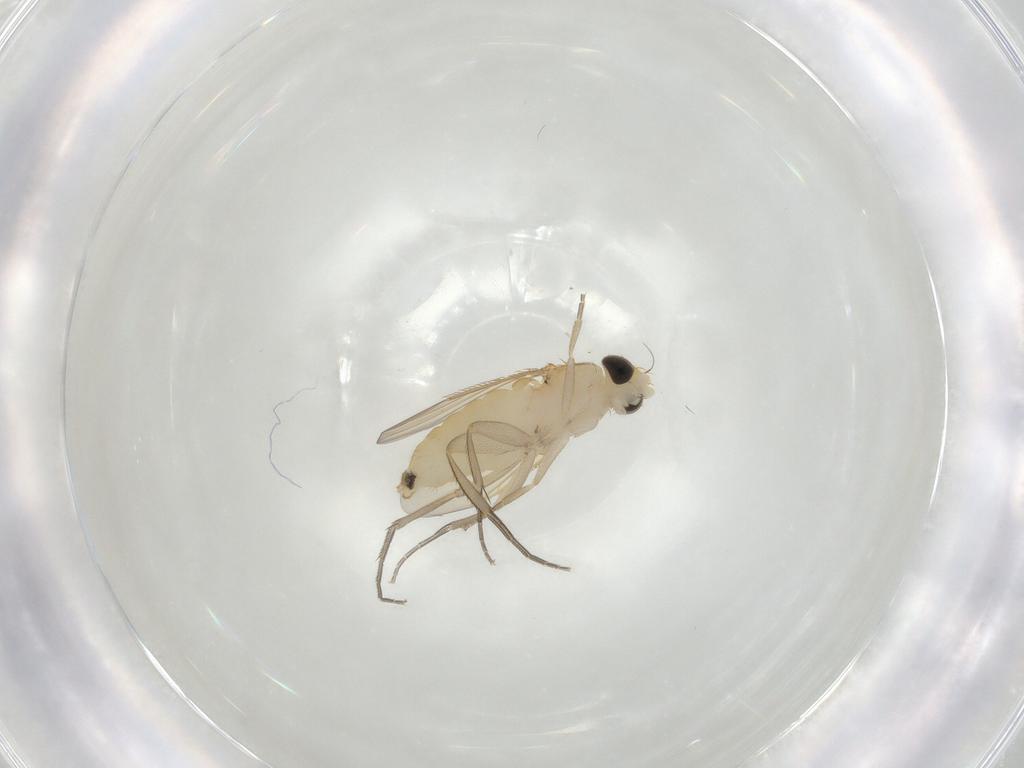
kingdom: Animalia
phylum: Arthropoda
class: Insecta
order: Diptera
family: Phoridae
